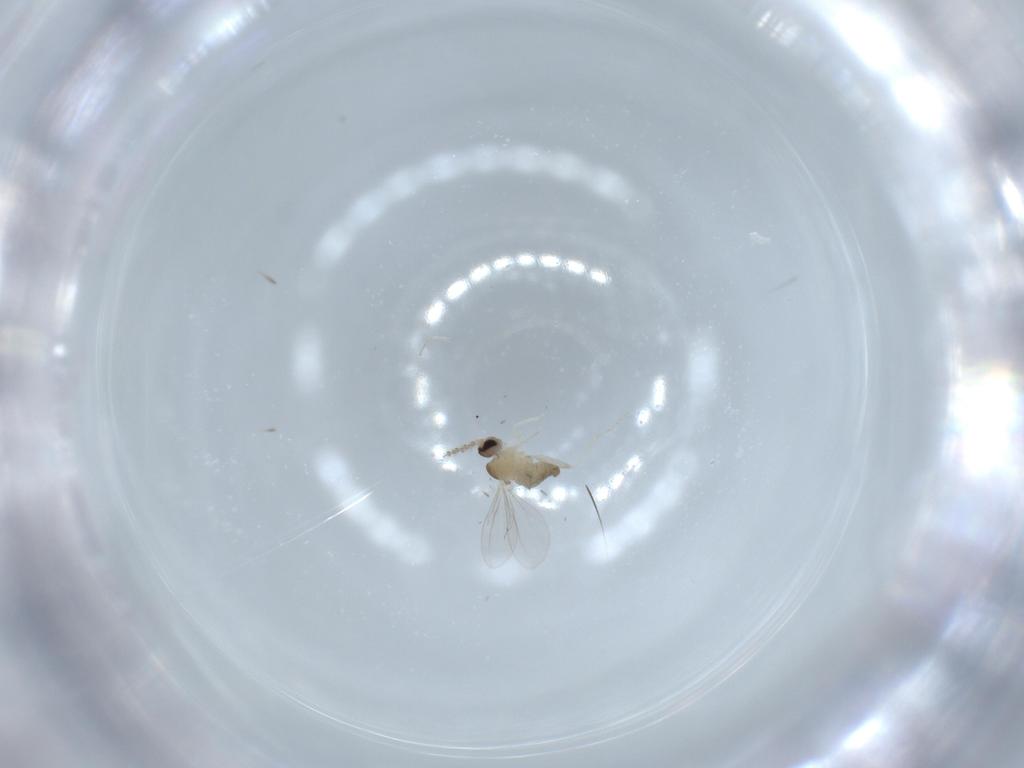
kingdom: Animalia
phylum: Arthropoda
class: Insecta
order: Diptera
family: Cecidomyiidae
